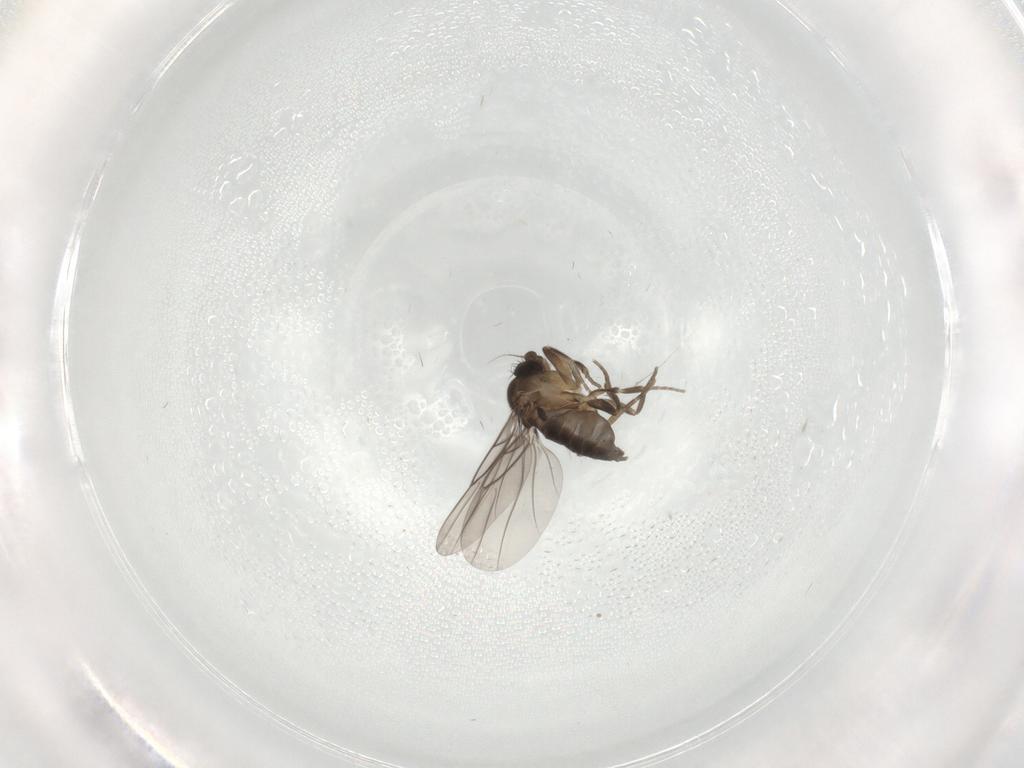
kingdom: Animalia
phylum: Arthropoda
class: Insecta
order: Diptera
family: Phoridae
